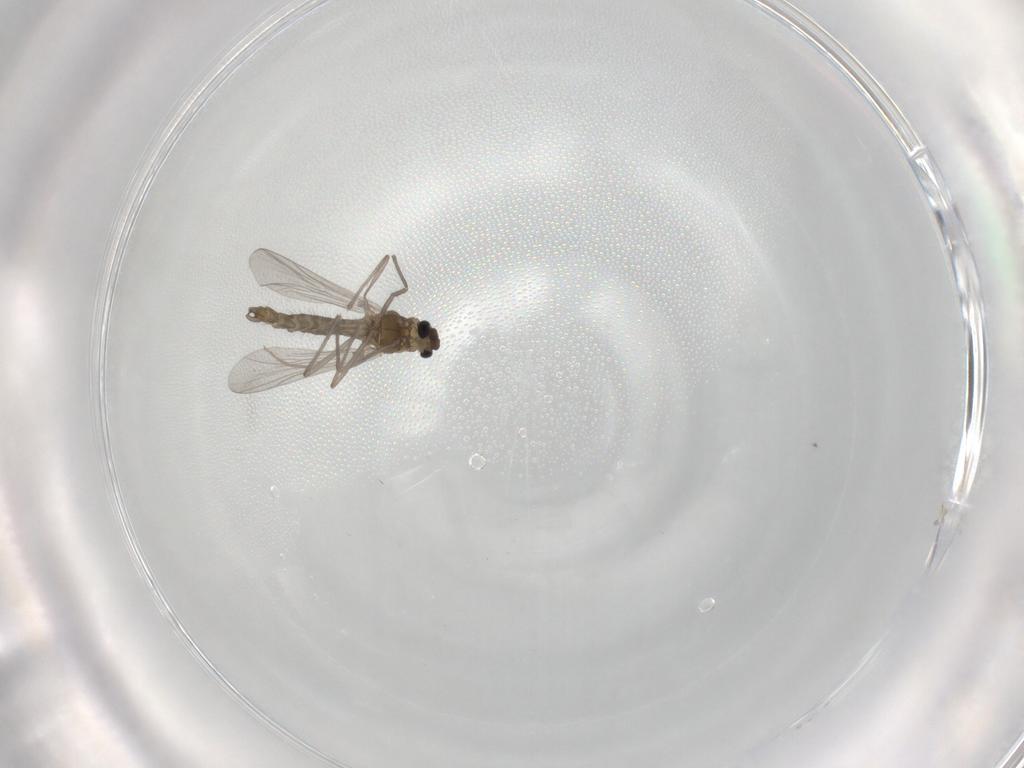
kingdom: Animalia
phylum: Arthropoda
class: Insecta
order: Diptera
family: Chironomidae
